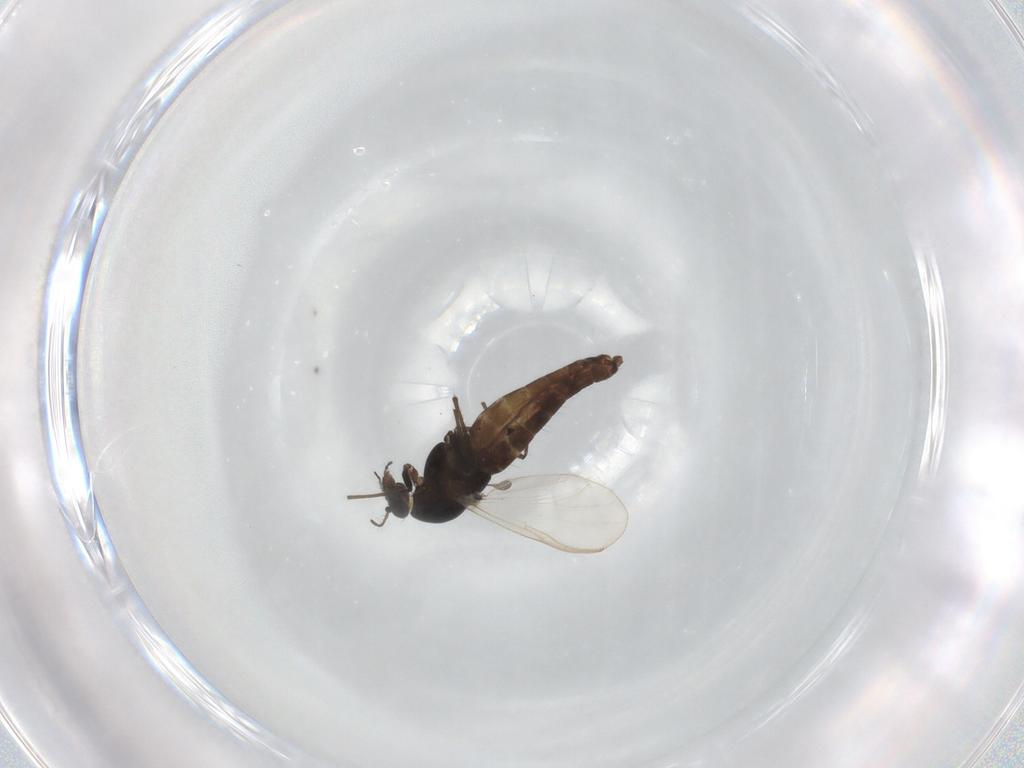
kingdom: Animalia
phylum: Arthropoda
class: Insecta
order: Diptera
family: Chironomidae
